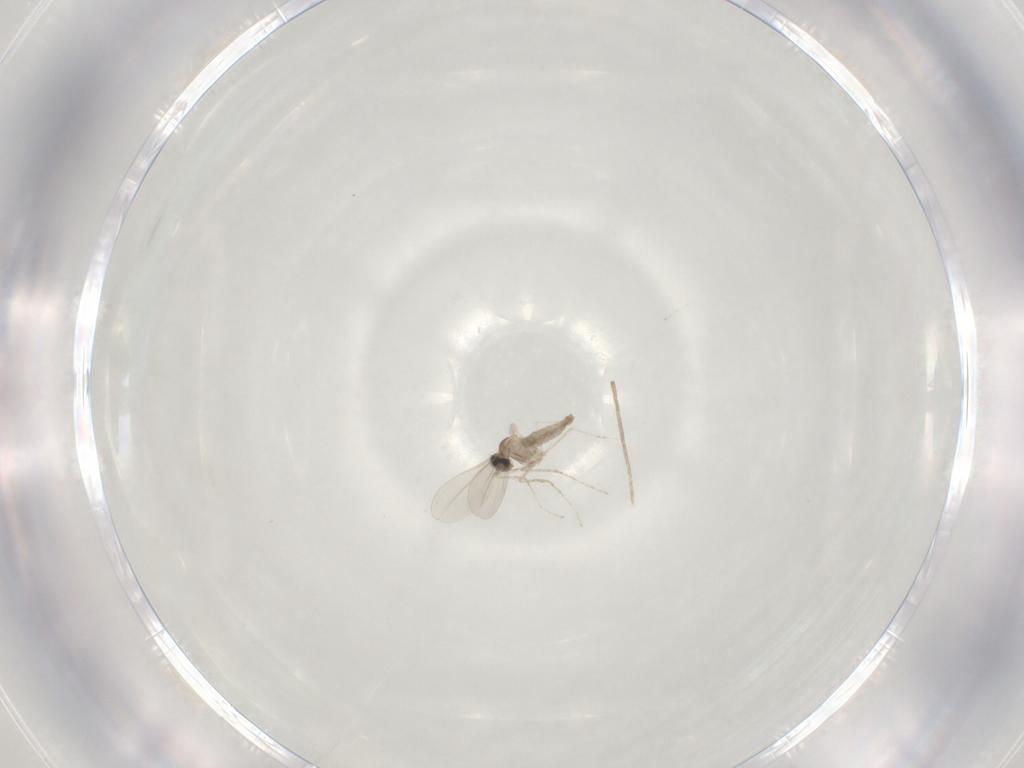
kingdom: Animalia
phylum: Arthropoda
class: Insecta
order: Diptera
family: Cecidomyiidae
